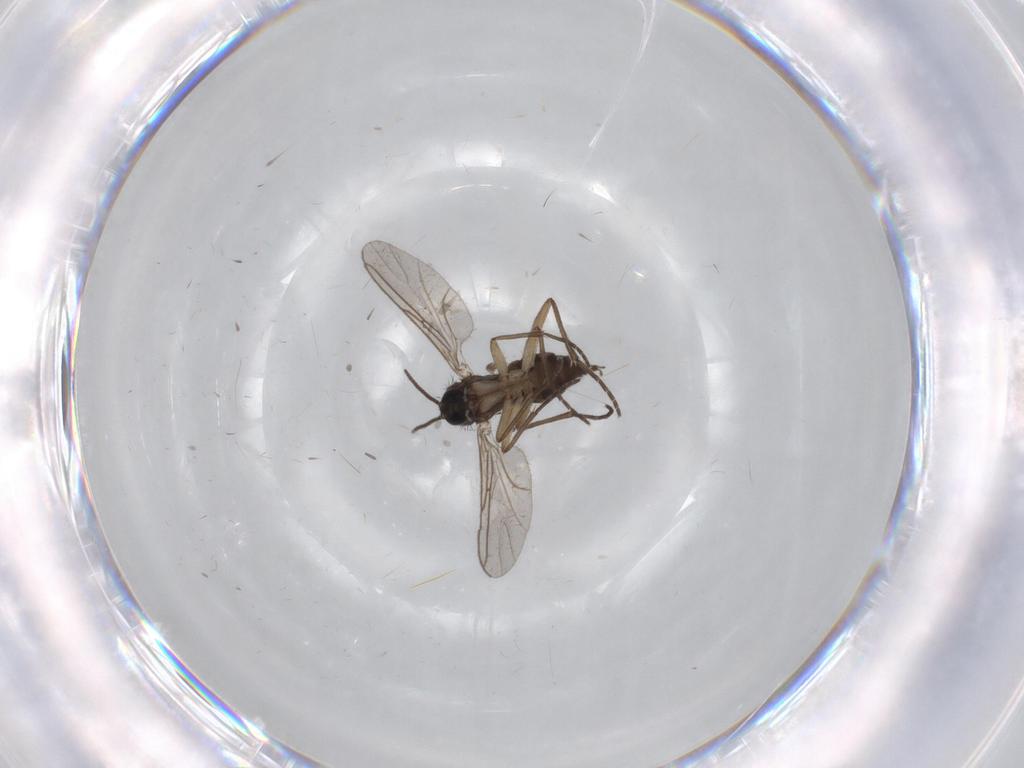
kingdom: Animalia
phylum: Arthropoda
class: Insecta
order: Diptera
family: Sciaridae
